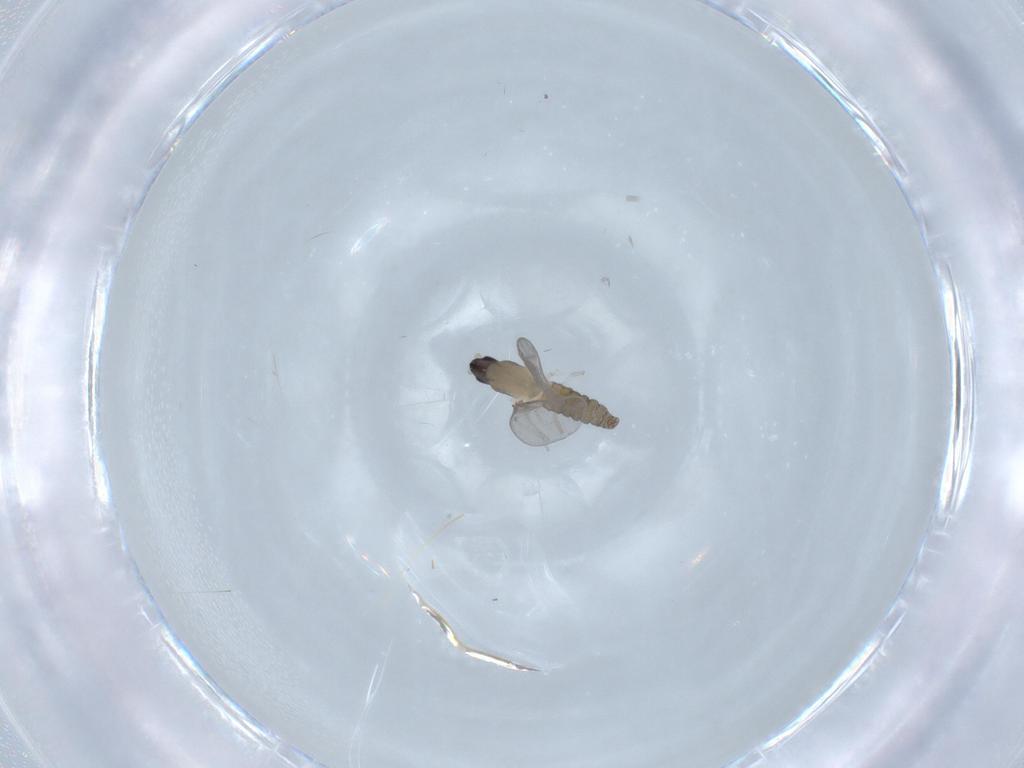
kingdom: Animalia
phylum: Arthropoda
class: Insecta
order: Diptera
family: Cecidomyiidae
